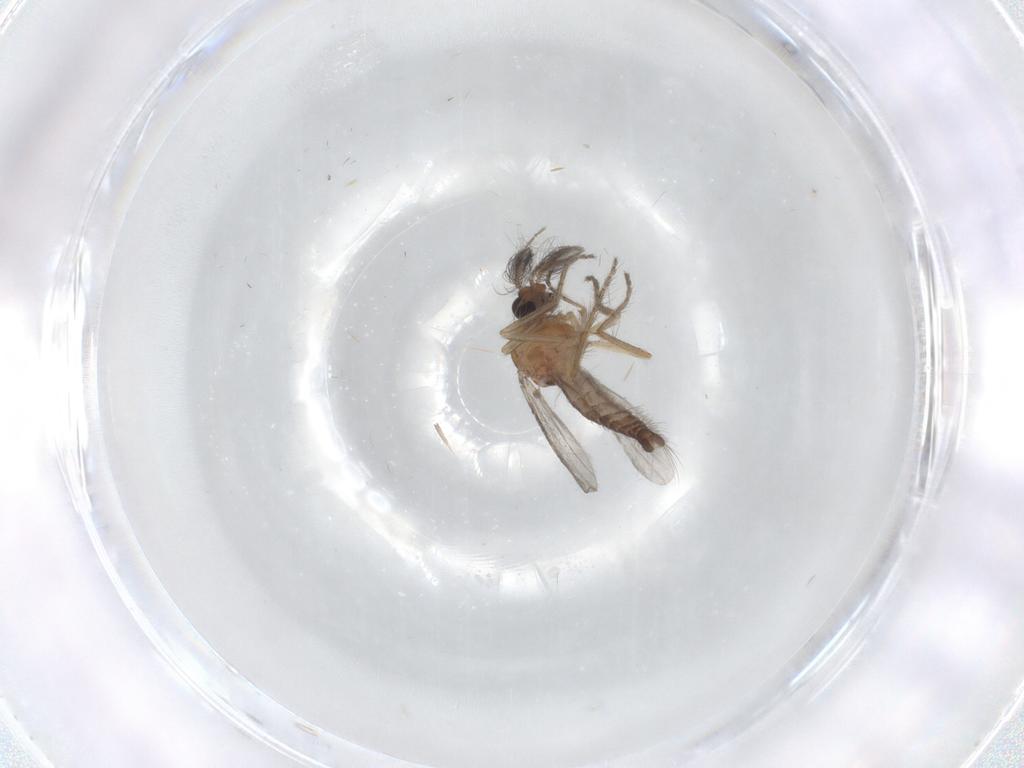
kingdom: Animalia
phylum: Arthropoda
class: Insecta
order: Diptera
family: Ceratopogonidae
